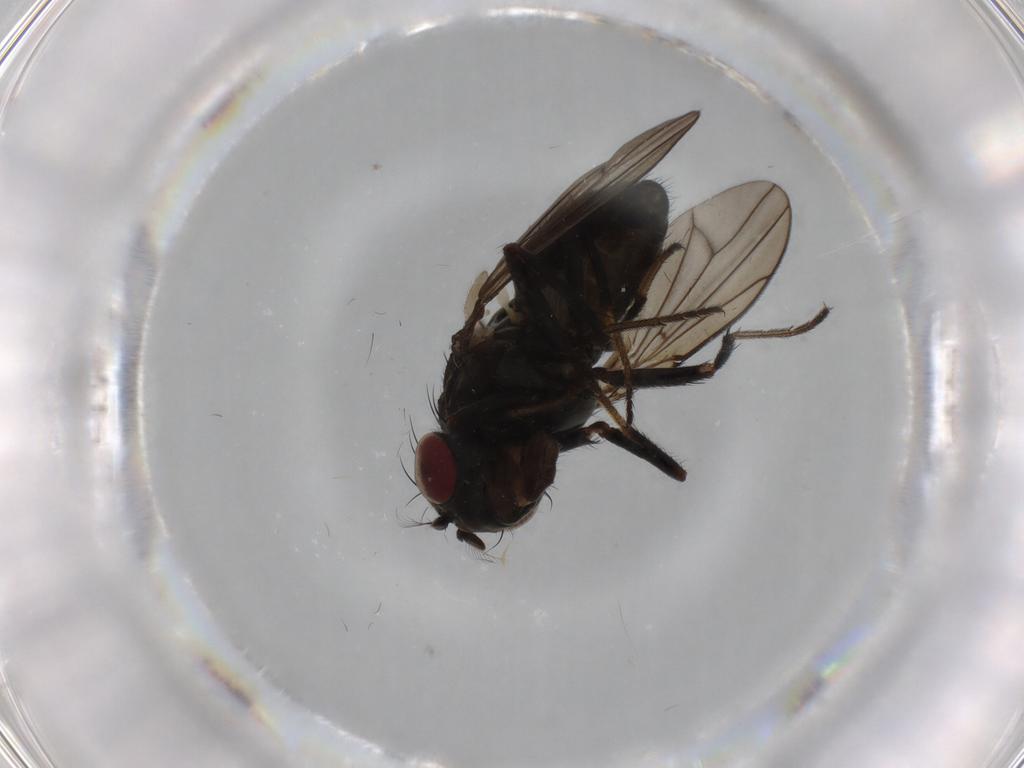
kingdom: Animalia
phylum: Arthropoda
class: Insecta
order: Diptera
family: Ephydridae
